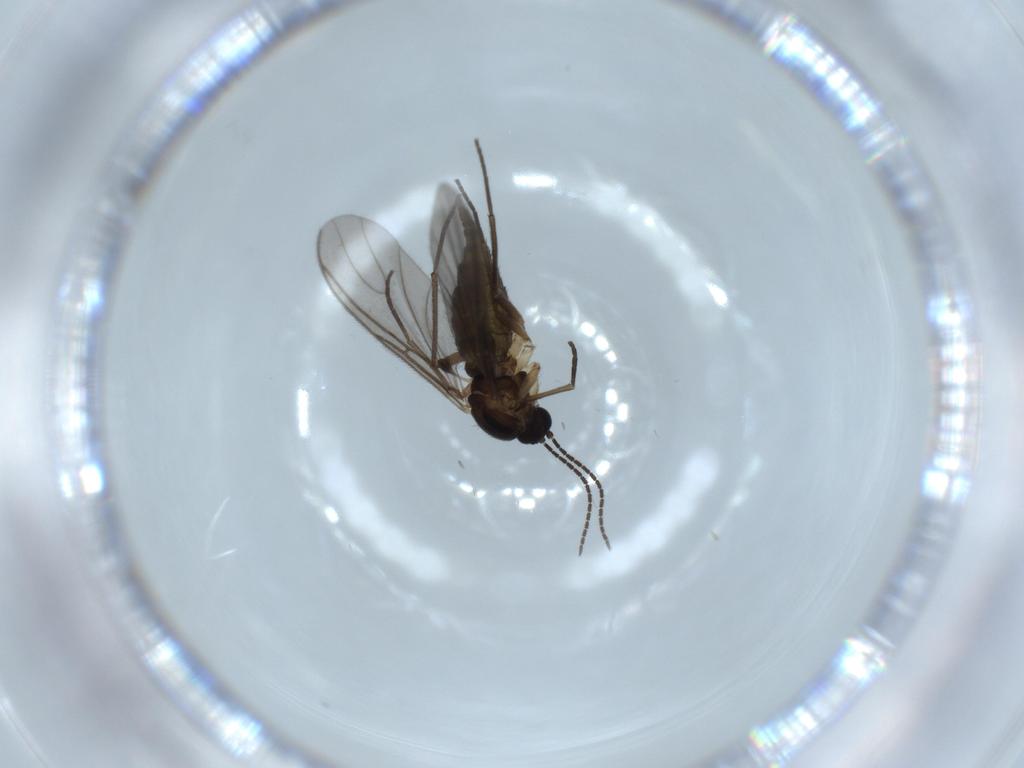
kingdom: Animalia
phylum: Arthropoda
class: Insecta
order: Diptera
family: Sciaridae
